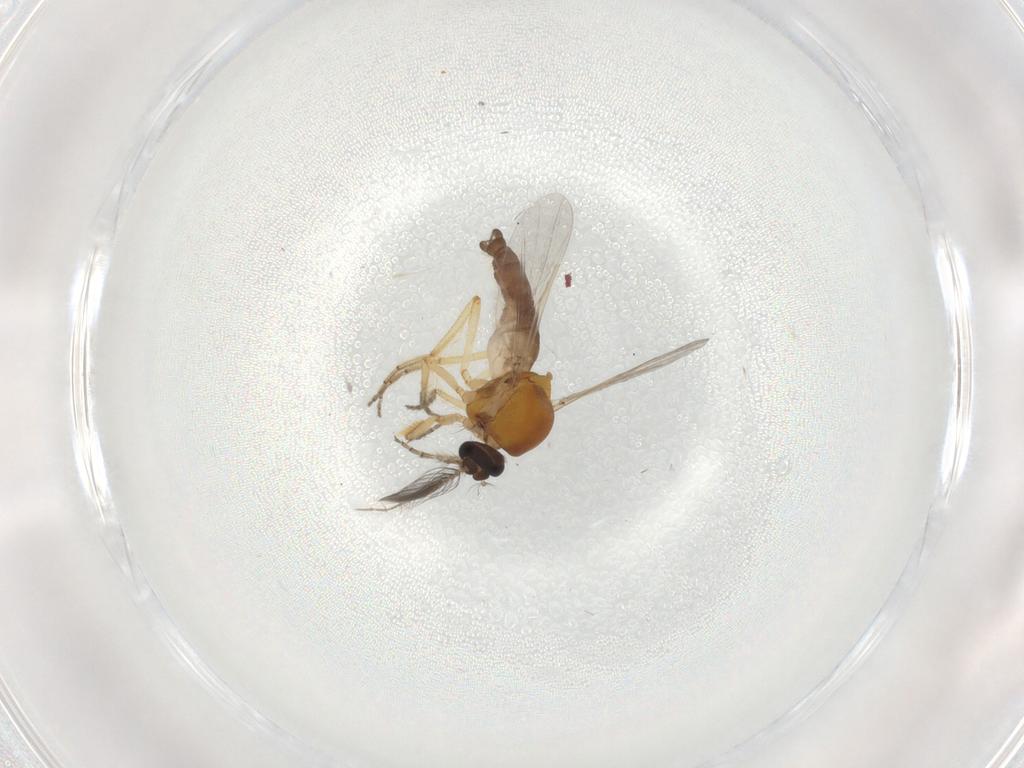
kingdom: Animalia
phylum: Arthropoda
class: Insecta
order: Diptera
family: Ceratopogonidae
